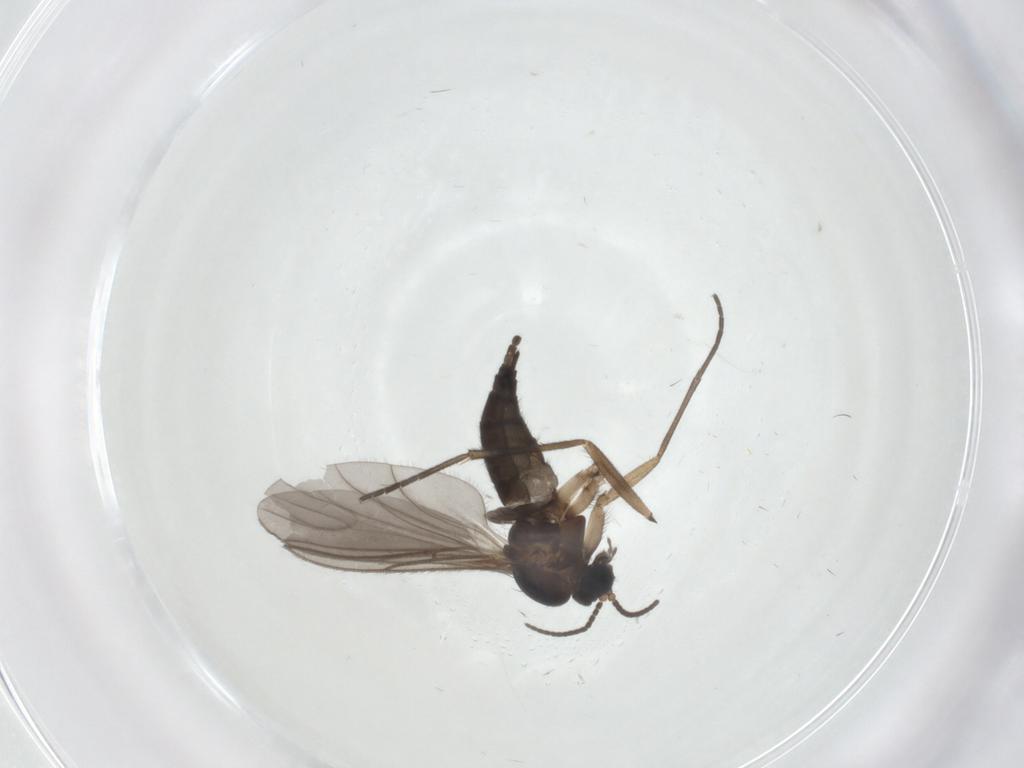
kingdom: Animalia
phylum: Arthropoda
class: Insecta
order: Diptera
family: Sciaridae
